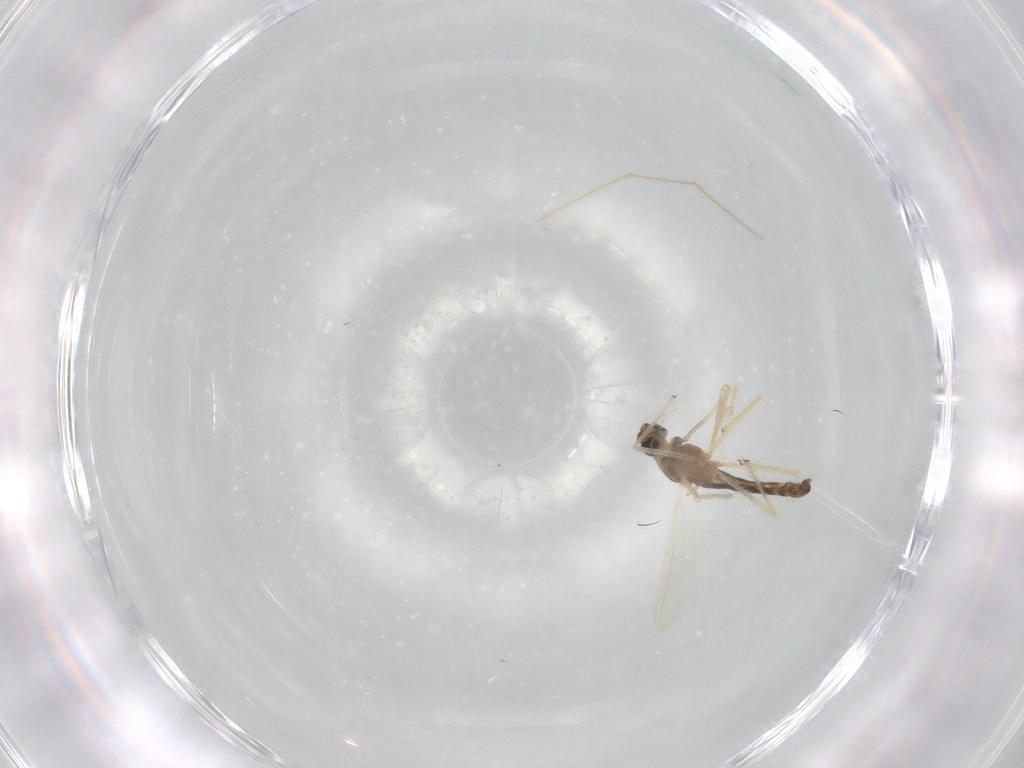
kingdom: Animalia
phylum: Arthropoda
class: Insecta
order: Diptera
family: Chironomidae
